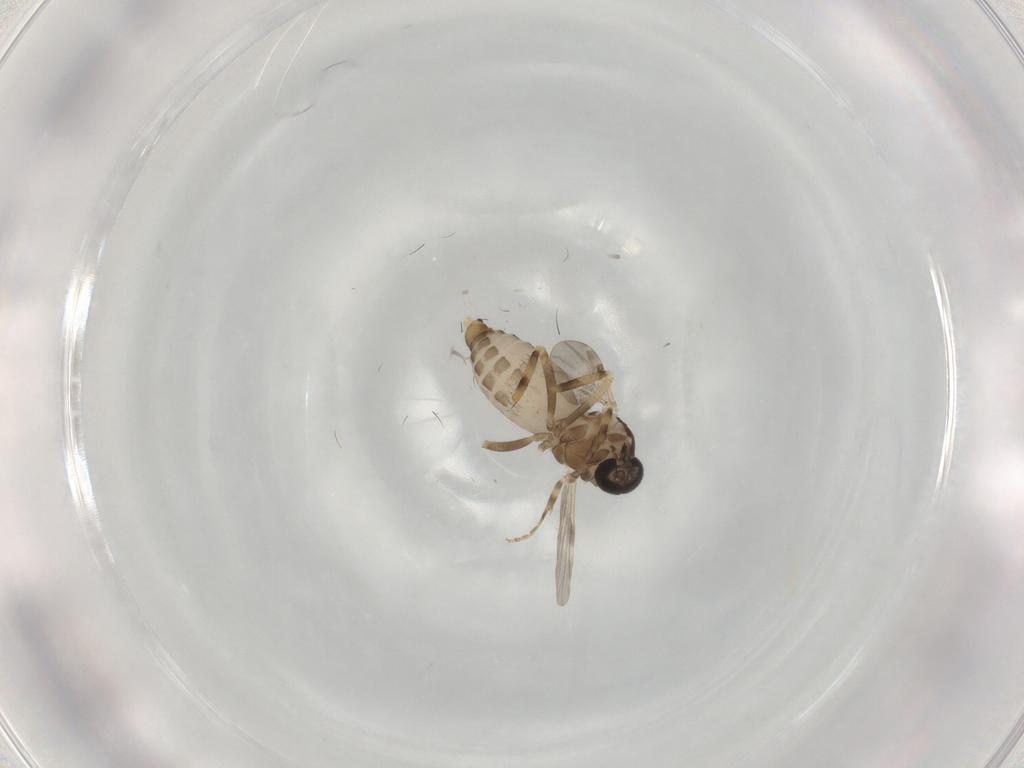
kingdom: Animalia
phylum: Arthropoda
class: Insecta
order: Diptera
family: Ceratopogonidae
